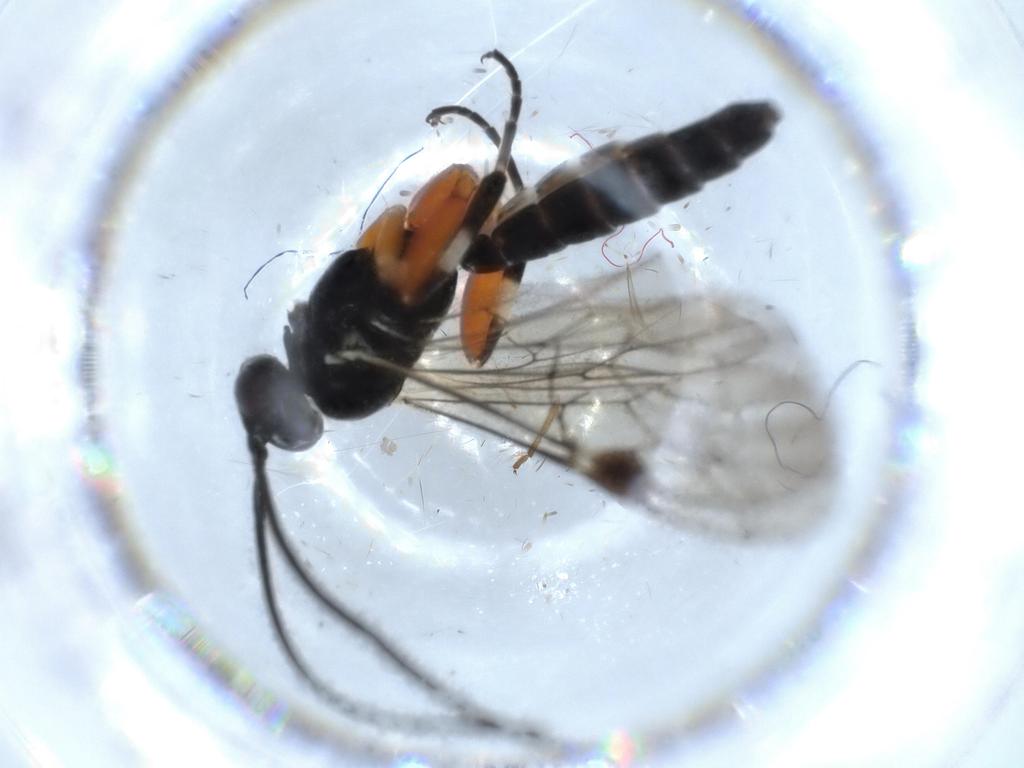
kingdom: Animalia
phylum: Arthropoda
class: Insecta
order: Hymenoptera
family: Ichneumonidae
